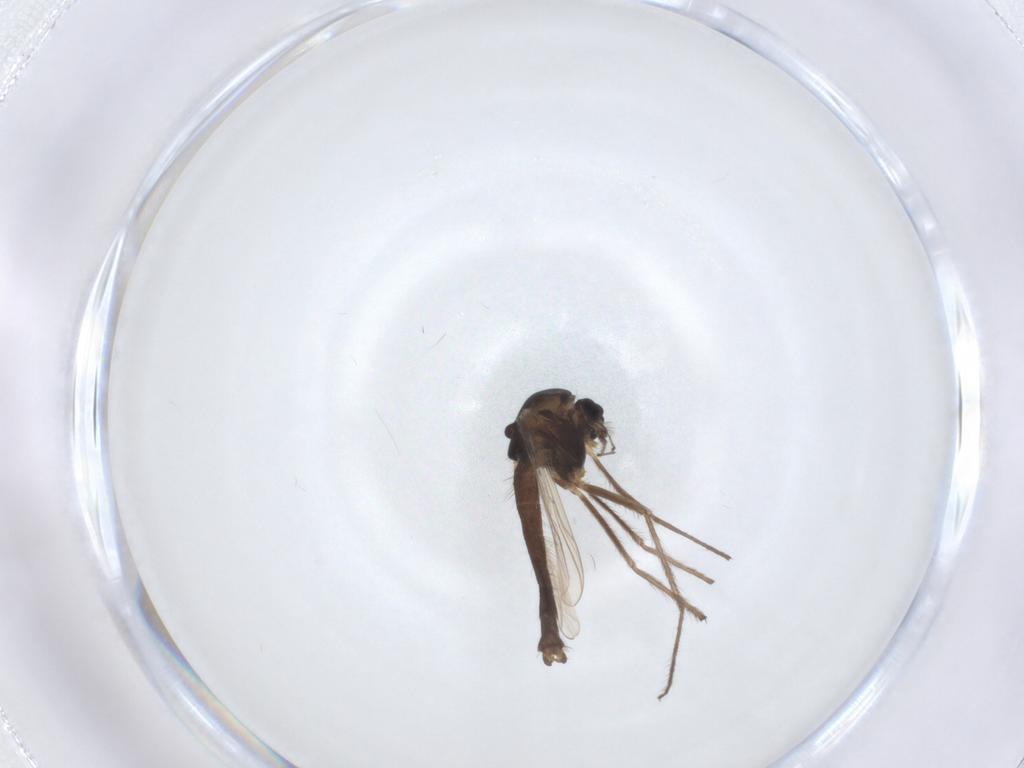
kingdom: Animalia
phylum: Arthropoda
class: Insecta
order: Diptera
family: Chironomidae
